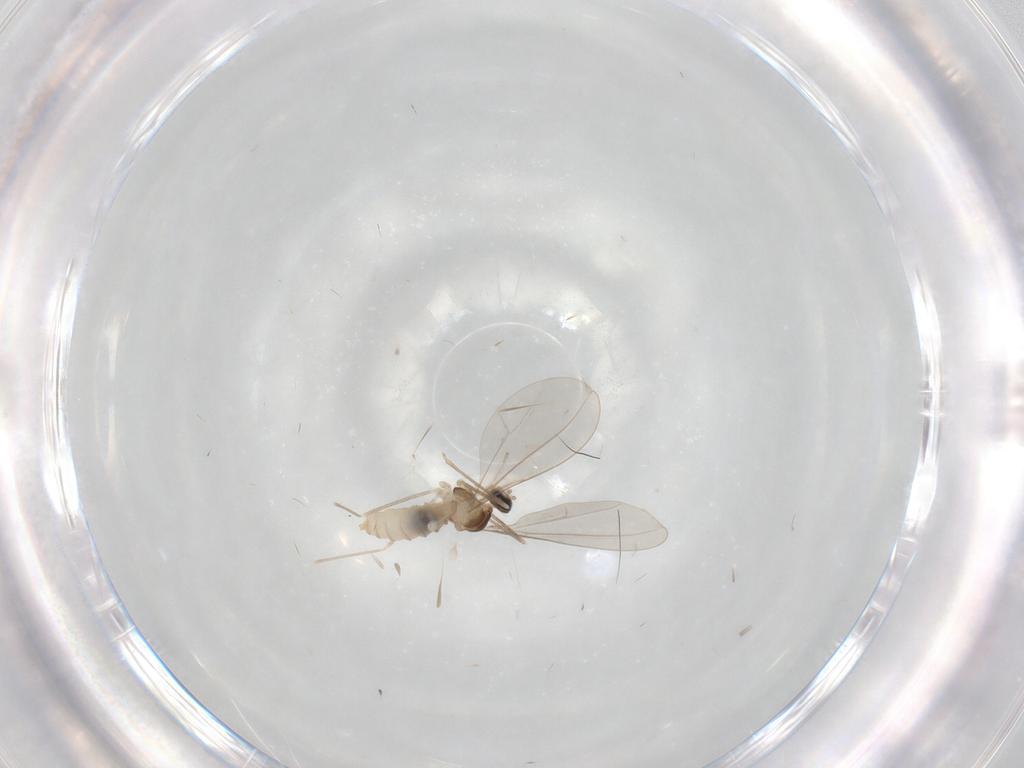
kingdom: Animalia
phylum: Arthropoda
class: Insecta
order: Diptera
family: Cecidomyiidae
